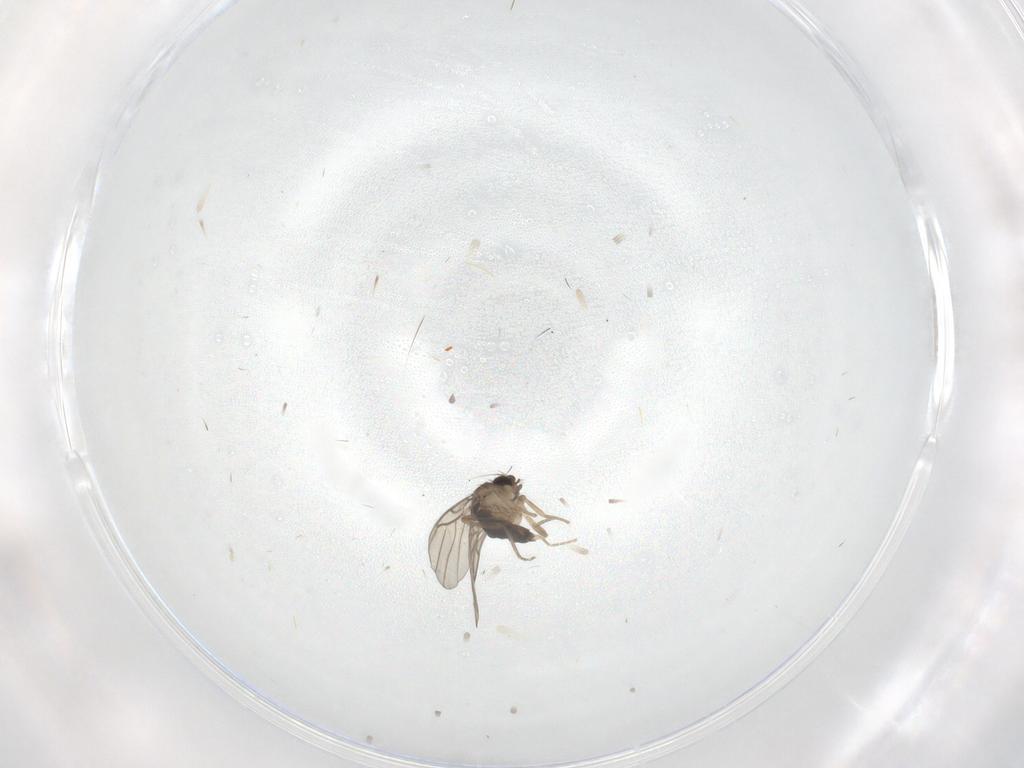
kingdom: Animalia
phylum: Arthropoda
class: Insecta
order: Diptera
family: Phoridae
